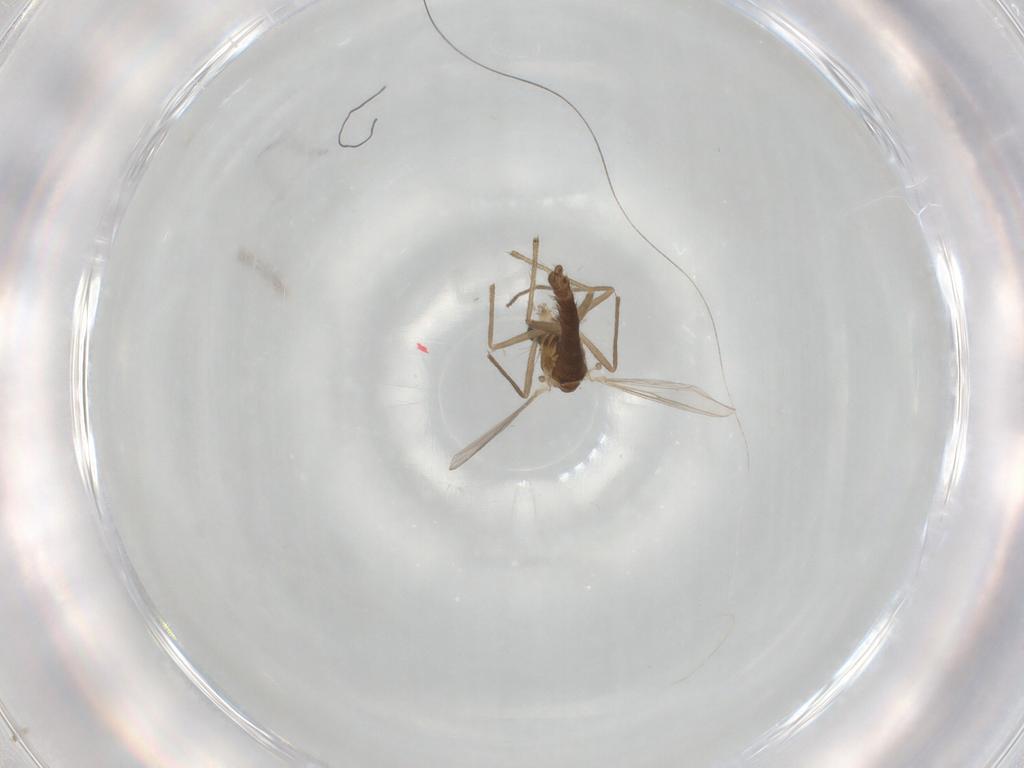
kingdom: Animalia
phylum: Arthropoda
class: Insecta
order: Diptera
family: Chironomidae
